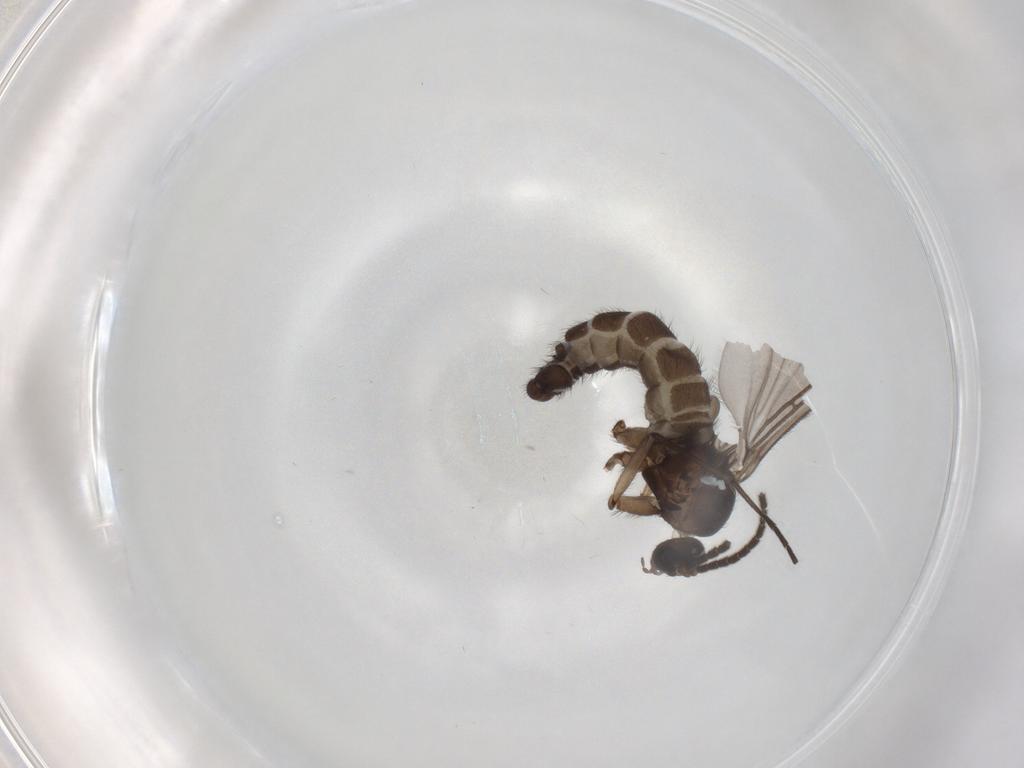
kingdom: Animalia
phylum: Arthropoda
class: Insecta
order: Diptera
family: Sciaridae
